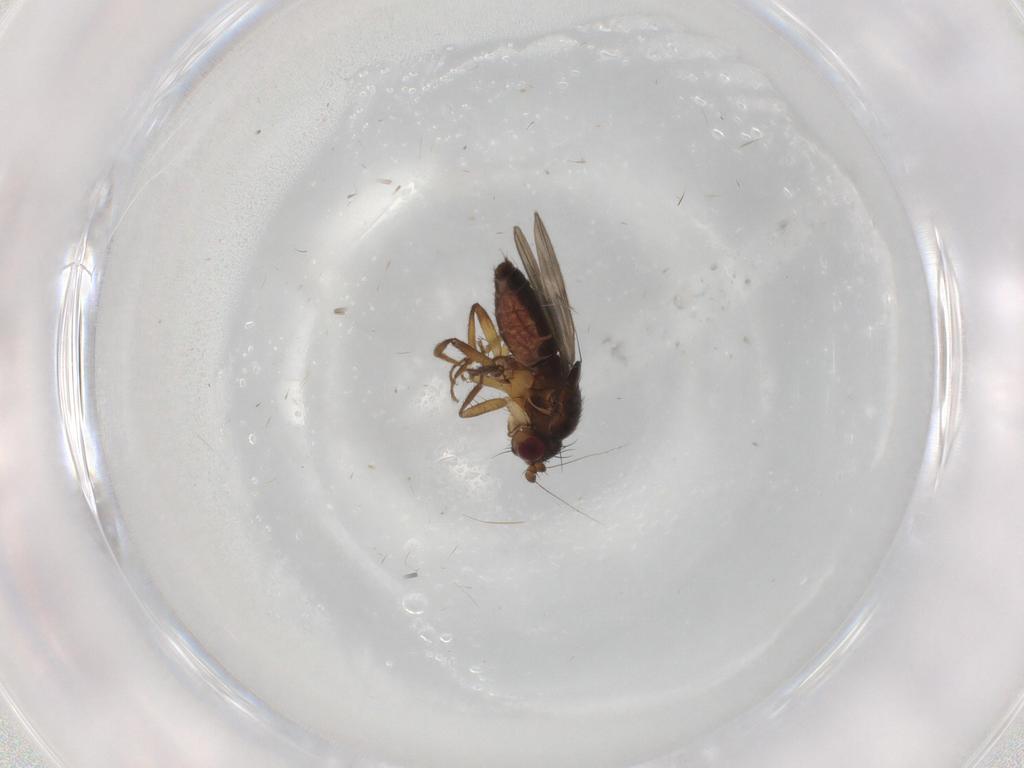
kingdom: Animalia
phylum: Arthropoda
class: Insecta
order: Diptera
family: Sphaeroceridae
